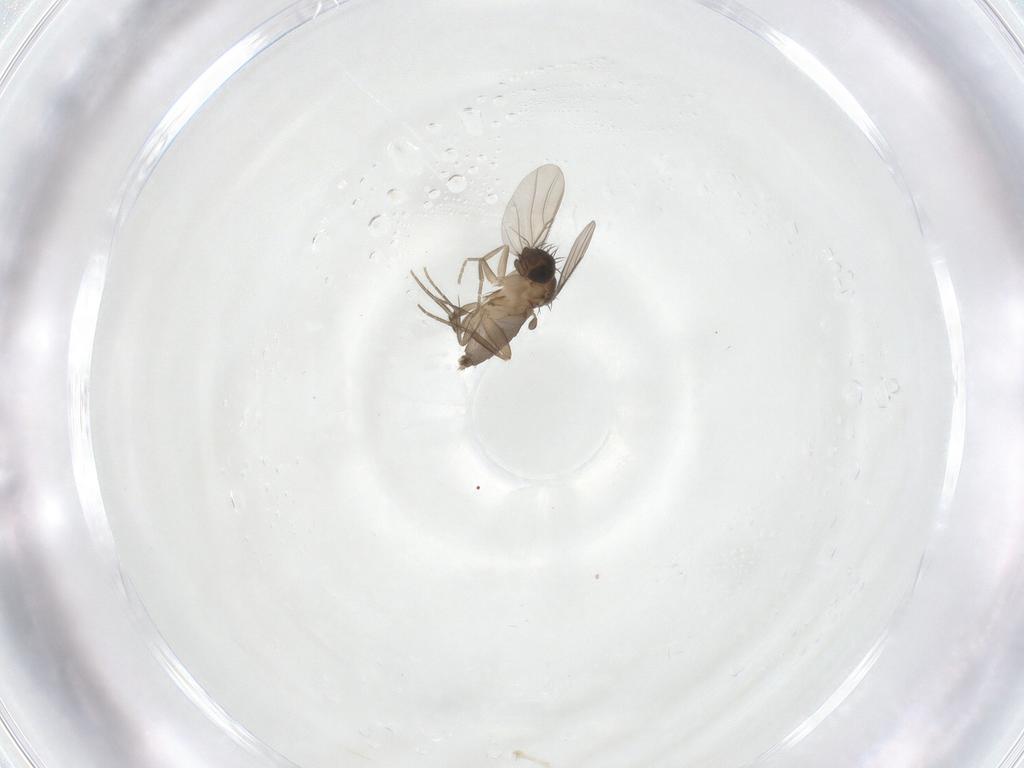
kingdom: Animalia
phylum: Arthropoda
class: Insecta
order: Diptera
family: Phoridae
